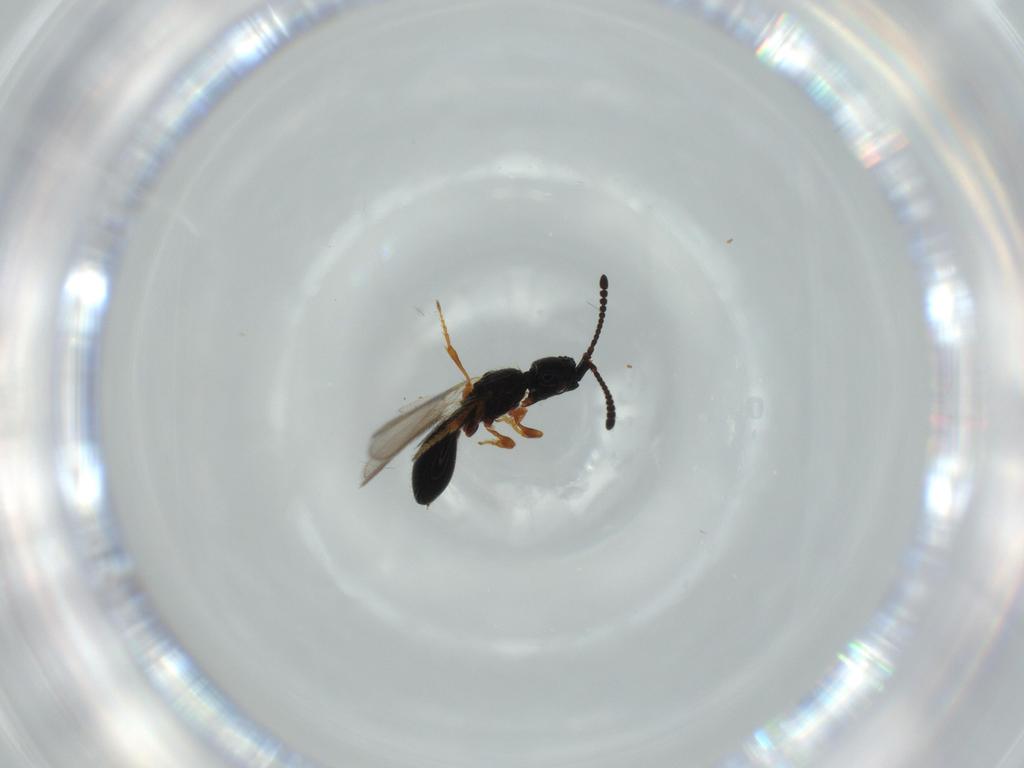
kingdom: Animalia
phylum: Arthropoda
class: Insecta
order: Hymenoptera
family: Diapriidae
